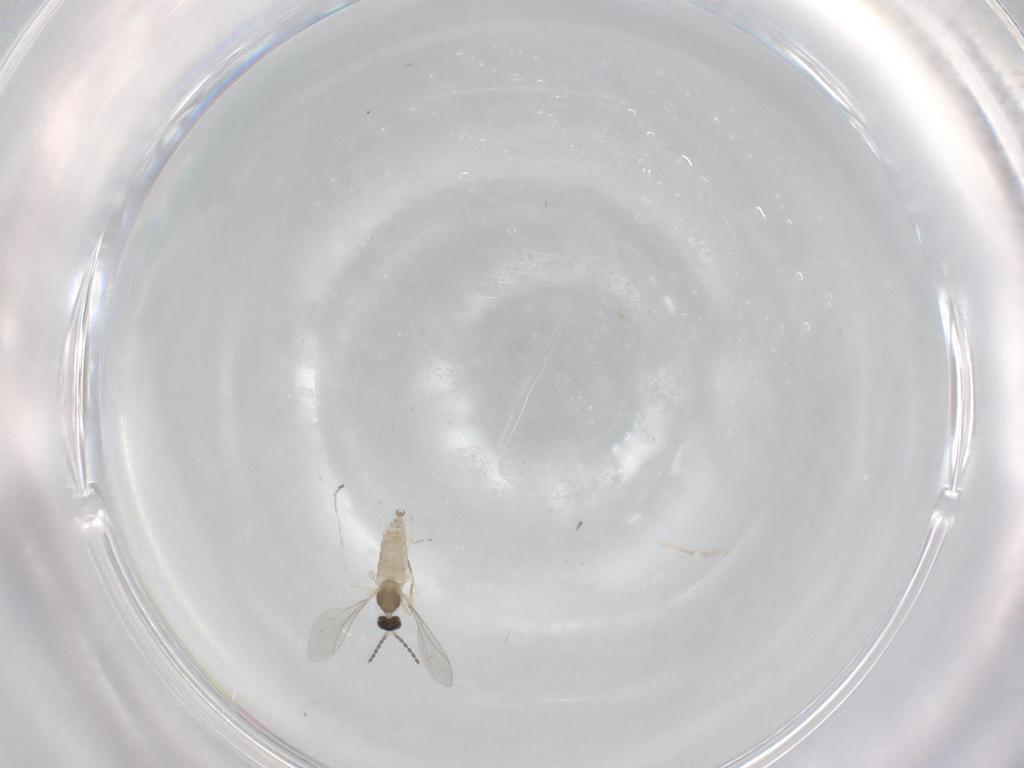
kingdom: Animalia
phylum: Arthropoda
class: Insecta
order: Diptera
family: Cecidomyiidae
